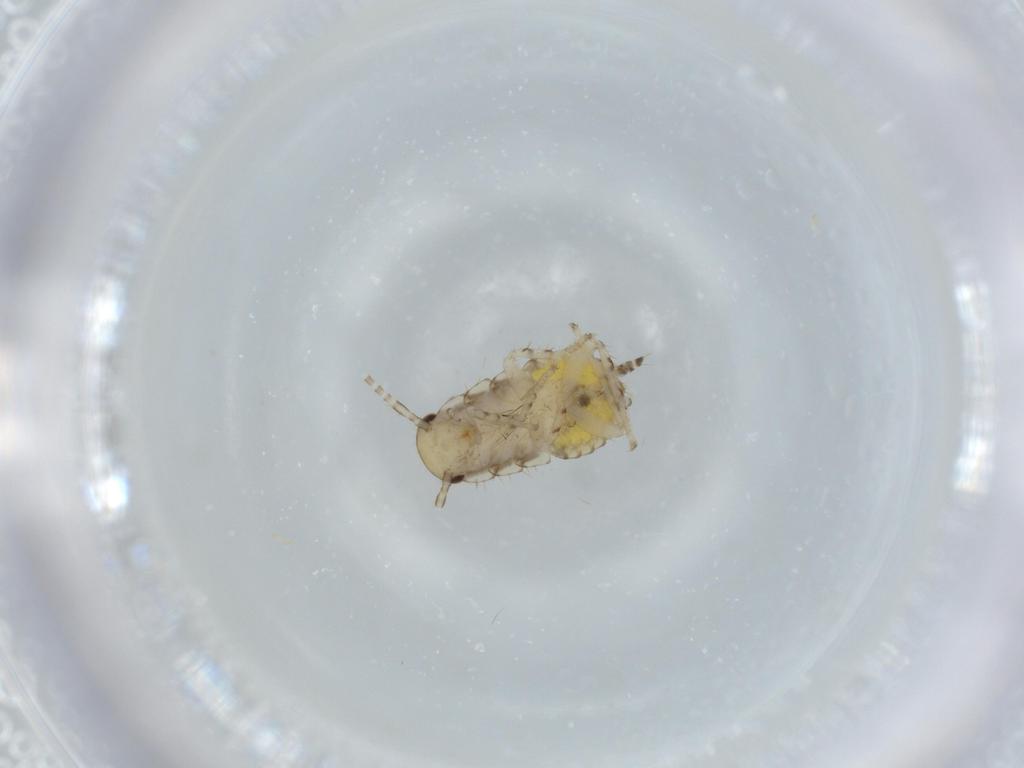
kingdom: Animalia
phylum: Arthropoda
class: Insecta
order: Blattodea
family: Ectobiidae
